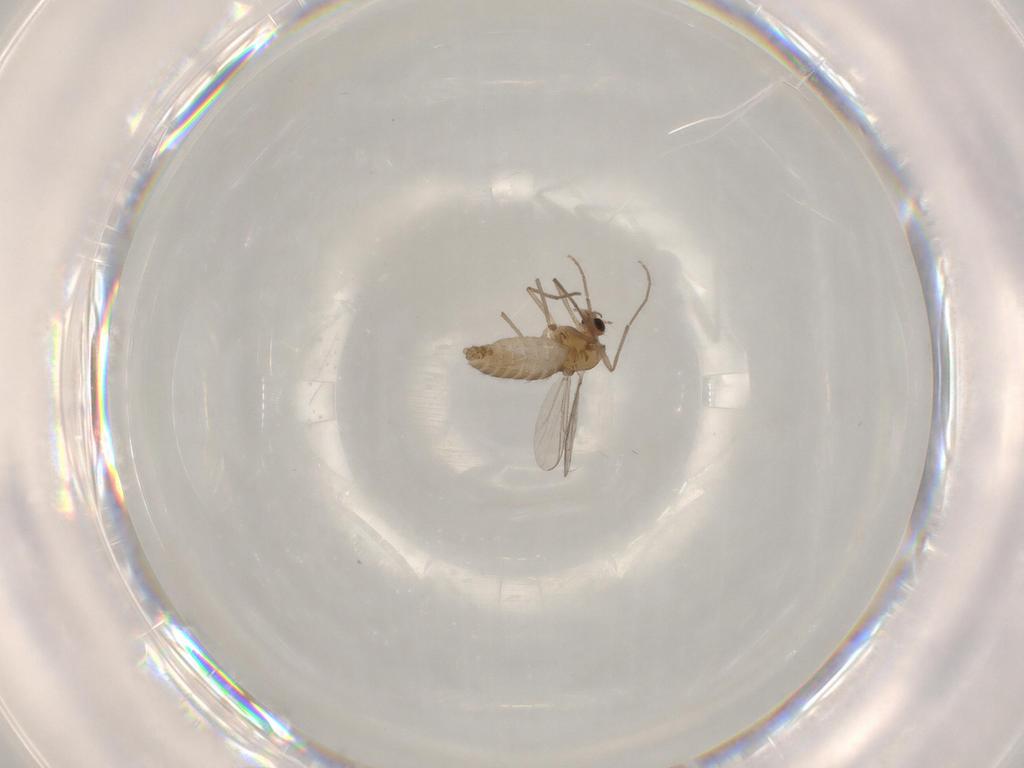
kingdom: Animalia
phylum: Arthropoda
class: Insecta
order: Diptera
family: Chironomidae
